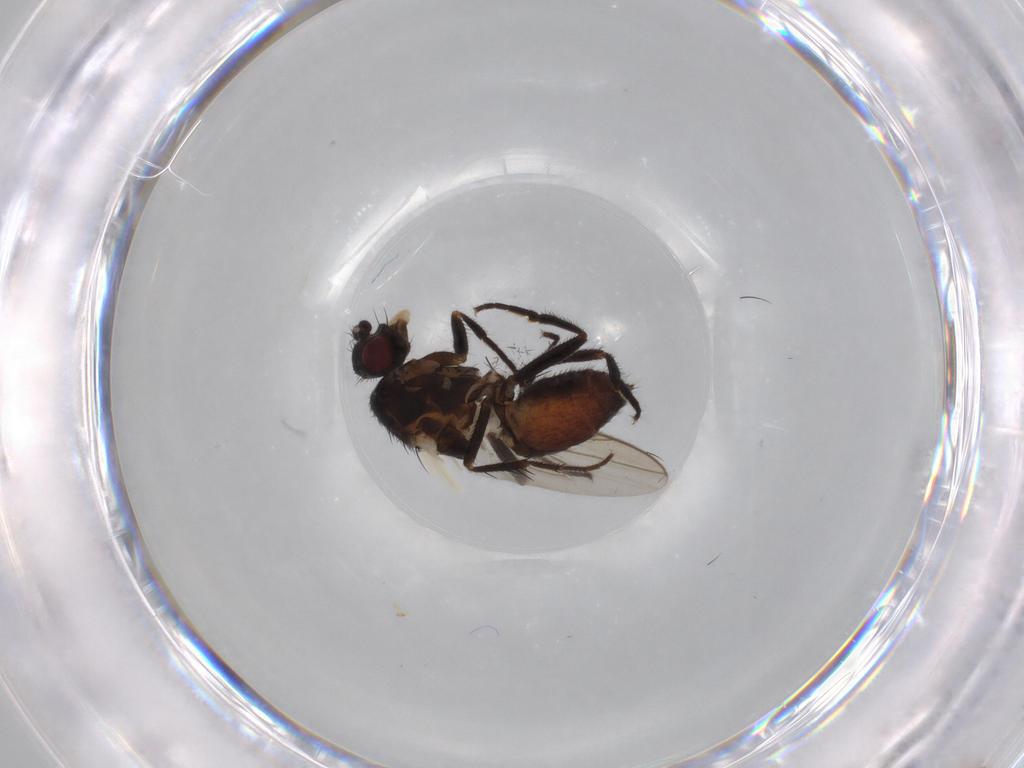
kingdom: Animalia
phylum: Arthropoda
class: Insecta
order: Diptera
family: Sphaeroceridae
